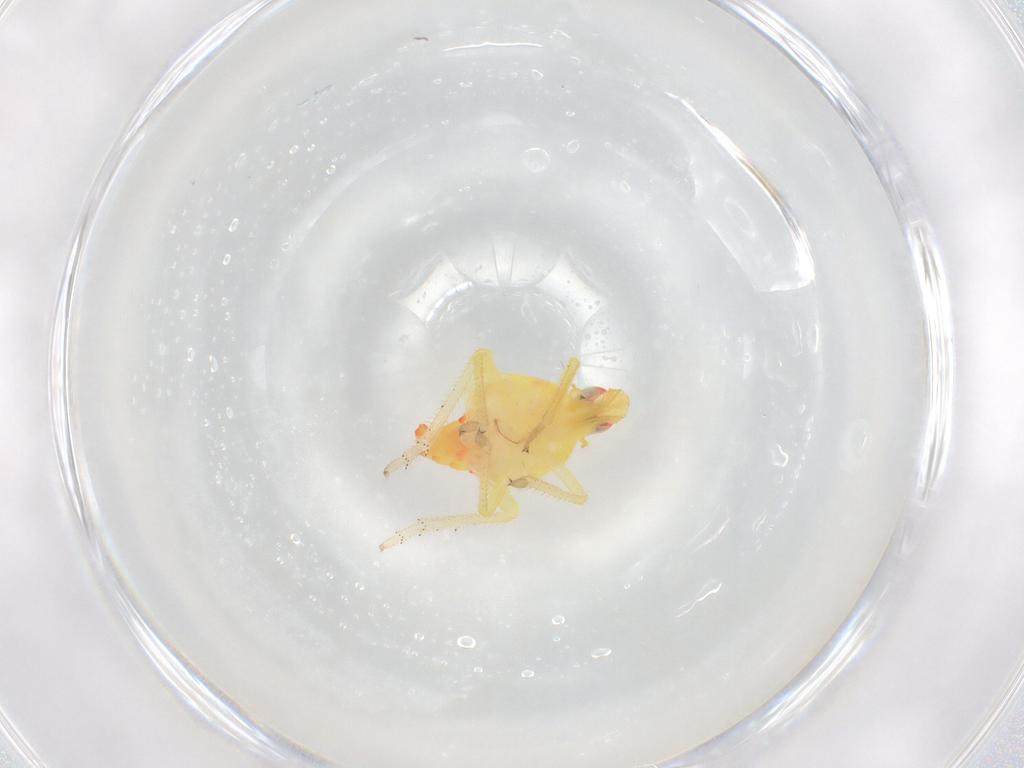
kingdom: Animalia
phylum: Arthropoda
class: Insecta
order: Hemiptera
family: Tropiduchidae
